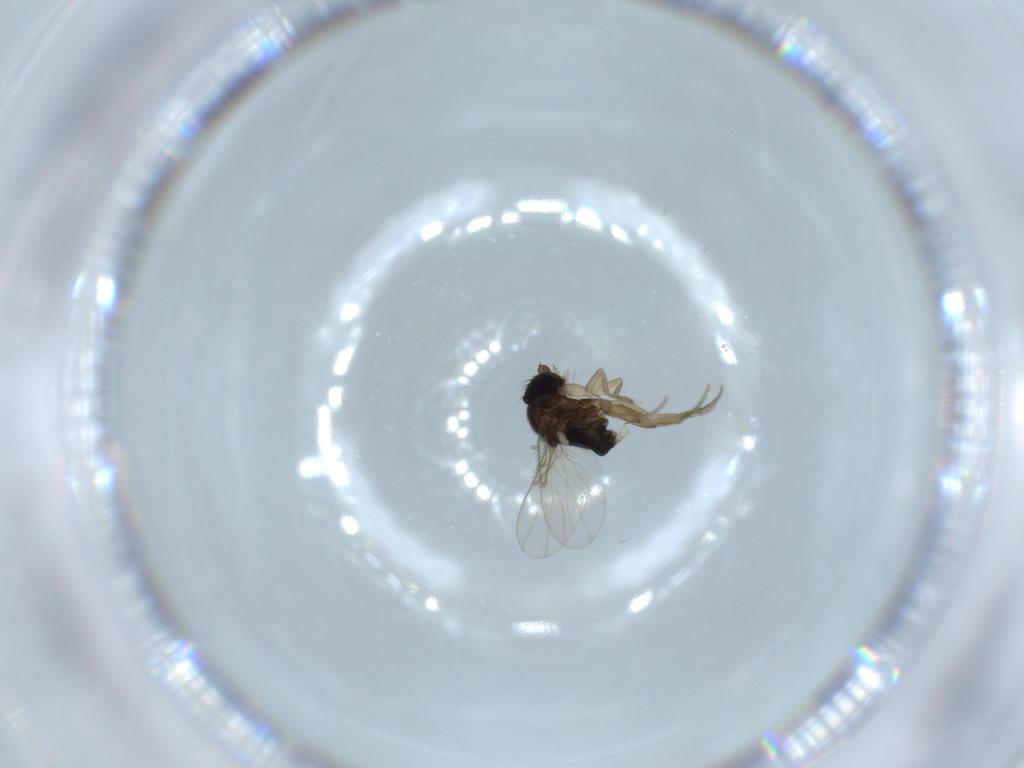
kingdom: Animalia
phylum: Arthropoda
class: Insecta
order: Diptera
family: Phoridae
